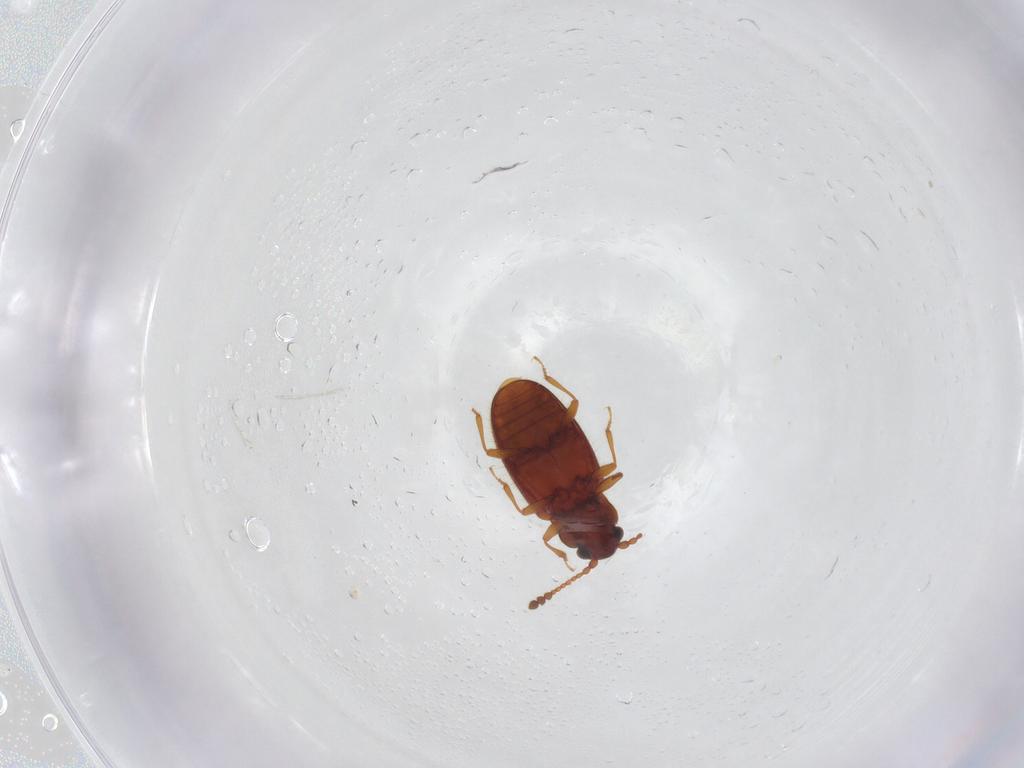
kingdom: Animalia
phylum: Arthropoda
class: Insecta
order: Coleoptera
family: Cryptophagidae
